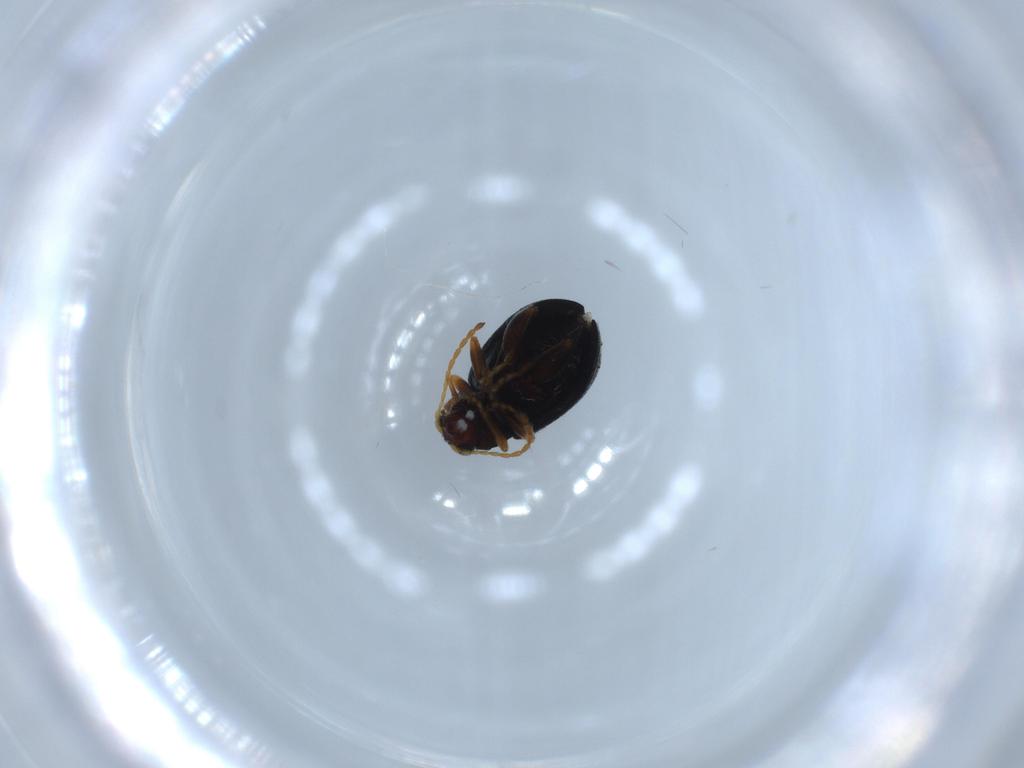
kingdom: Animalia
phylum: Arthropoda
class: Insecta
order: Coleoptera
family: Chrysomelidae
